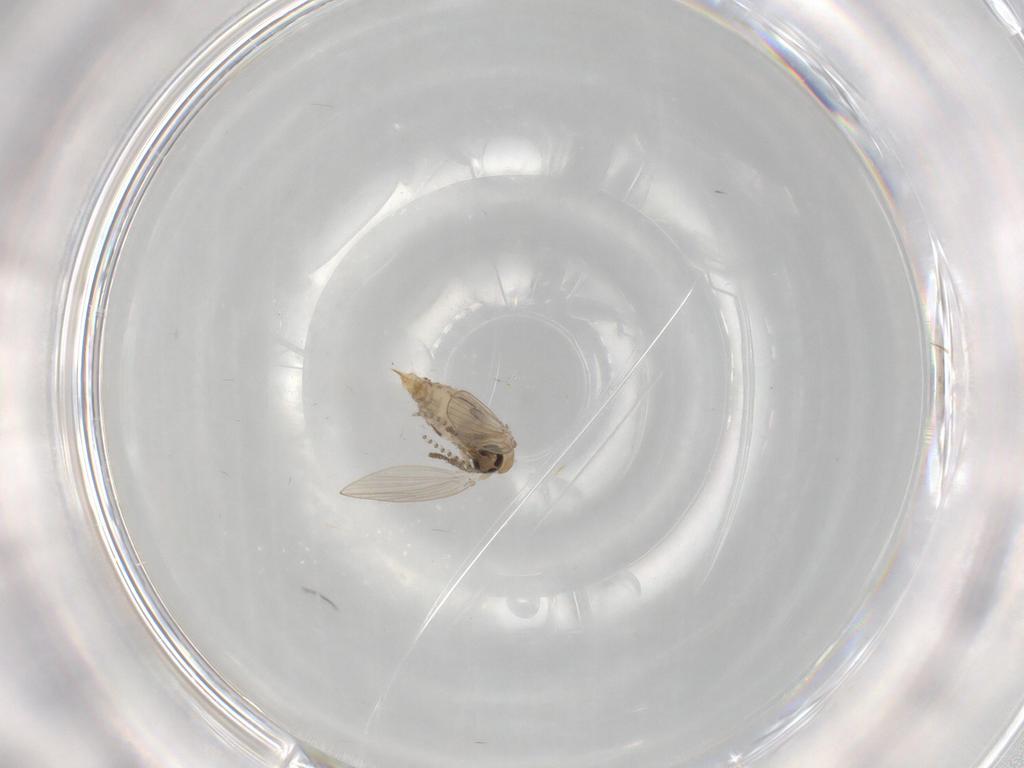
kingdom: Animalia
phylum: Arthropoda
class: Insecta
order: Diptera
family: Psychodidae
